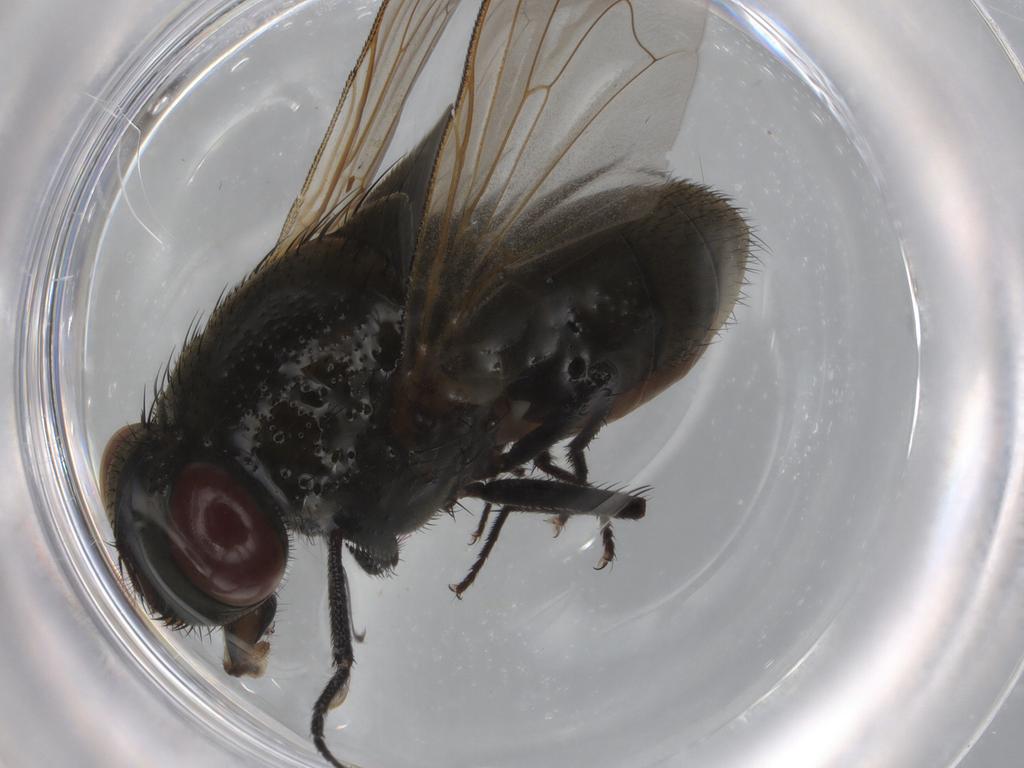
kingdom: Animalia
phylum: Arthropoda
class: Insecta
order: Diptera
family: Muscidae
